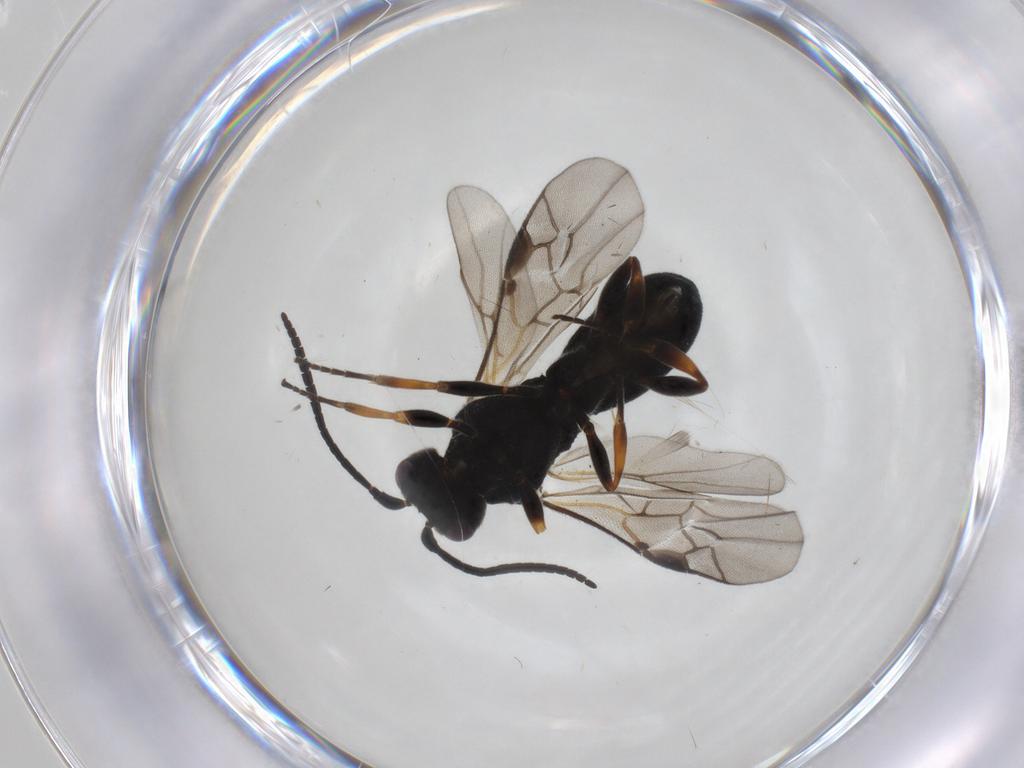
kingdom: Animalia
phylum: Arthropoda
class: Insecta
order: Hymenoptera
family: Braconidae
